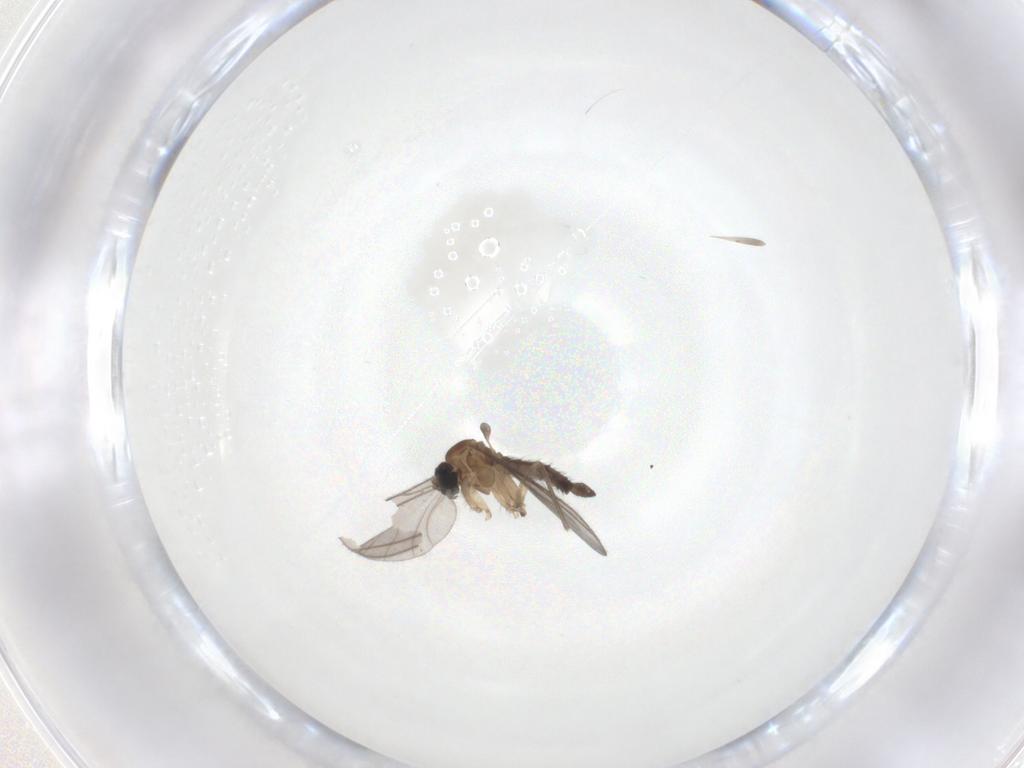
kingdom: Animalia
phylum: Arthropoda
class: Insecta
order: Diptera
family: Sciaridae
